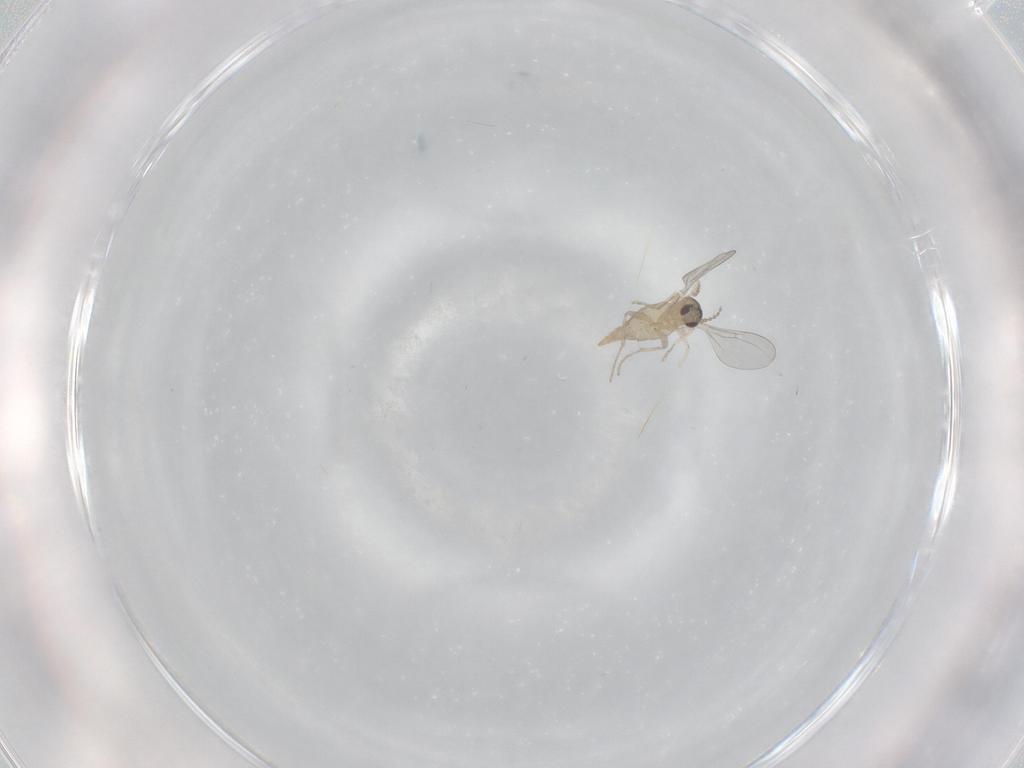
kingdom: Animalia
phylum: Arthropoda
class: Insecta
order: Diptera
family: Cecidomyiidae
